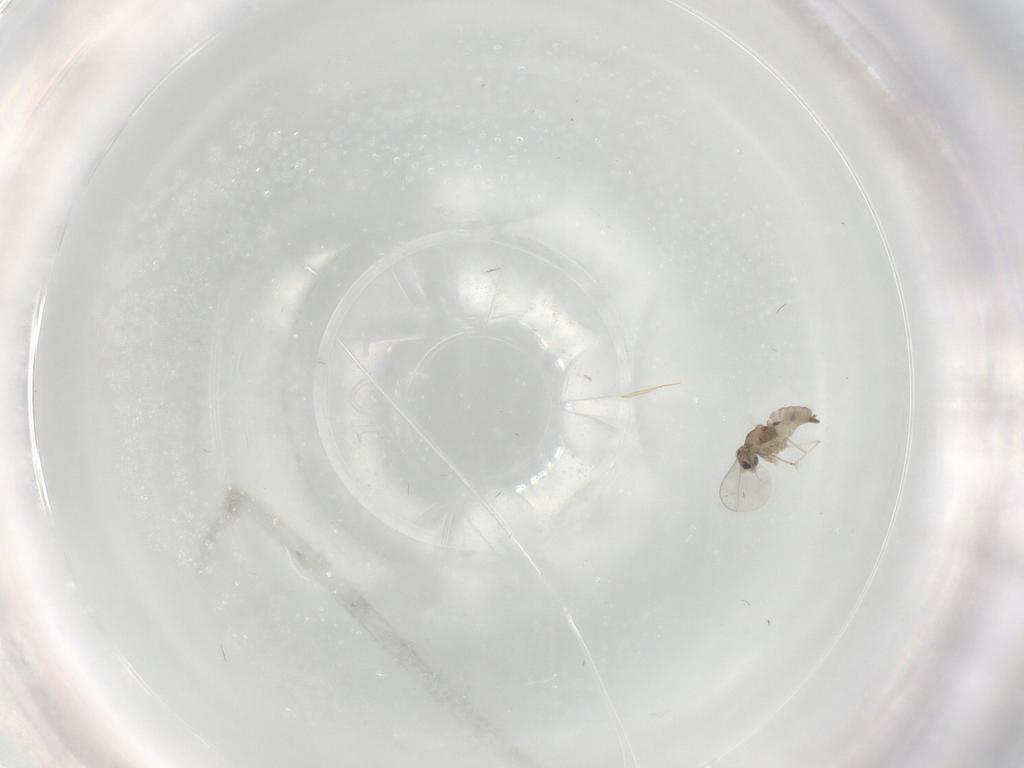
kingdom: Animalia
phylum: Arthropoda
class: Insecta
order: Diptera
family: Cecidomyiidae
